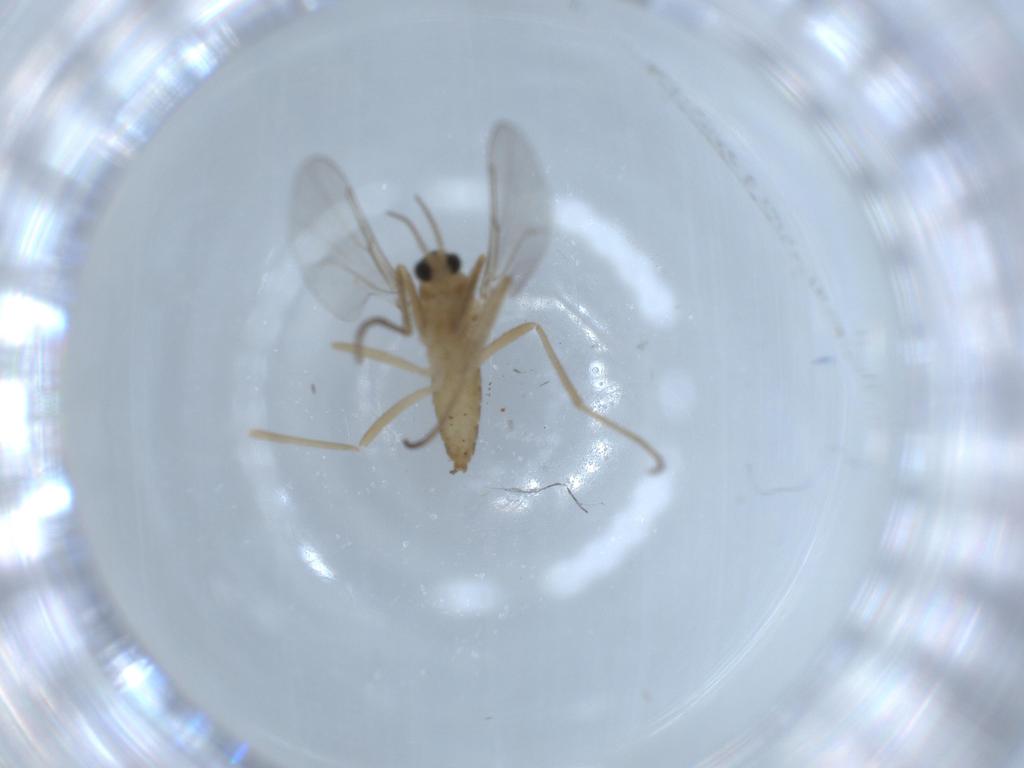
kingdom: Animalia
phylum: Arthropoda
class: Insecta
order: Diptera
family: Cecidomyiidae
